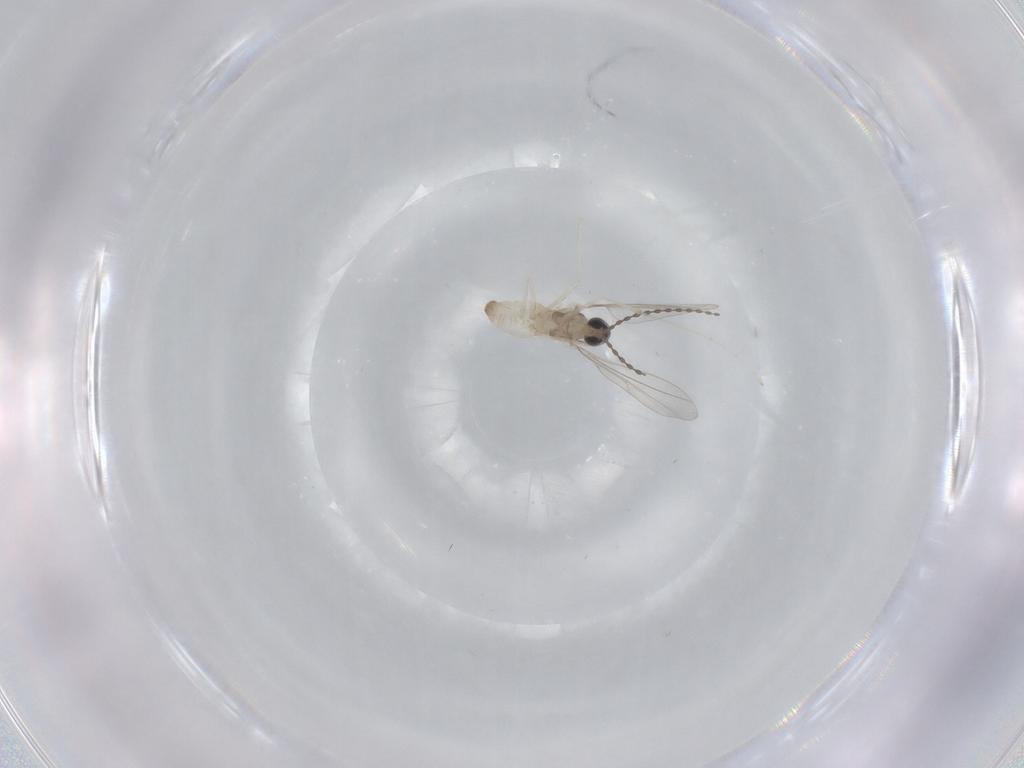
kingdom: Animalia
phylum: Arthropoda
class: Insecta
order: Diptera
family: Cecidomyiidae
